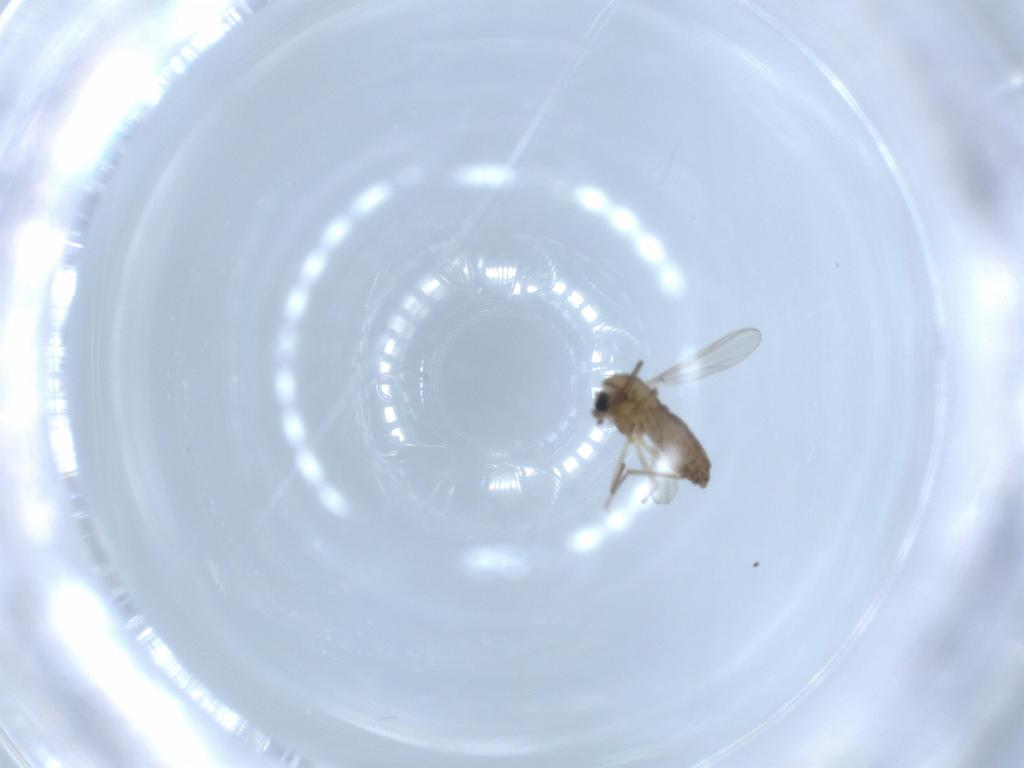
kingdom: Animalia
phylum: Arthropoda
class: Insecta
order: Diptera
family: Chironomidae
